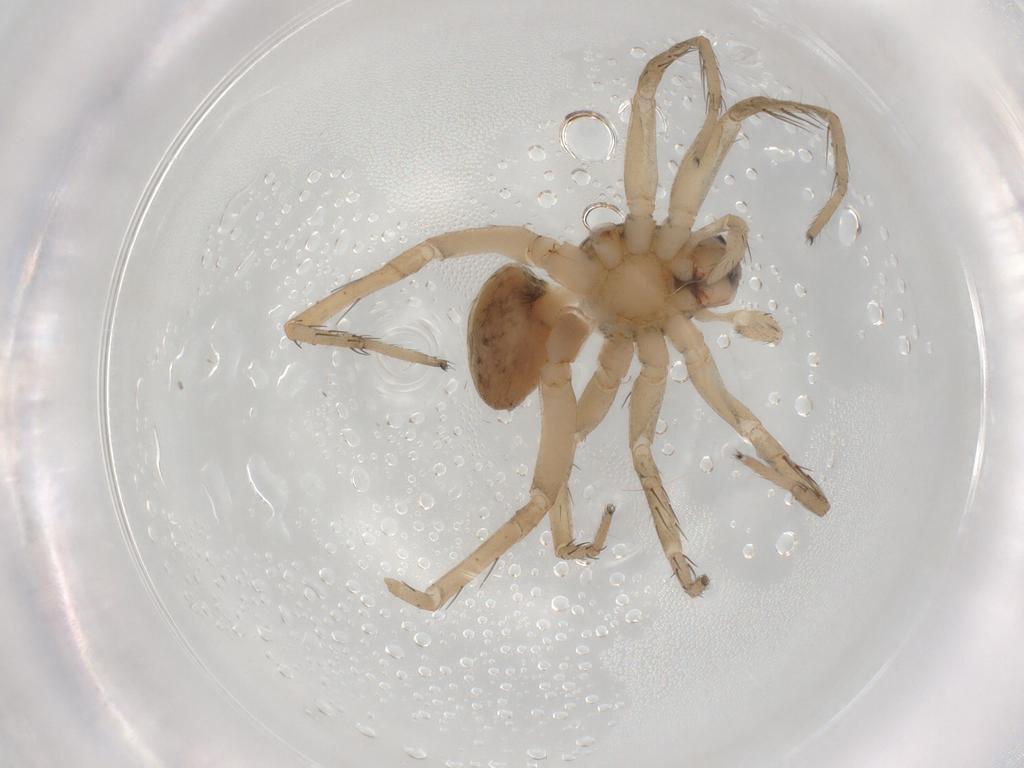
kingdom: Animalia
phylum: Arthropoda
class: Arachnida
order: Araneae
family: Lycosidae
